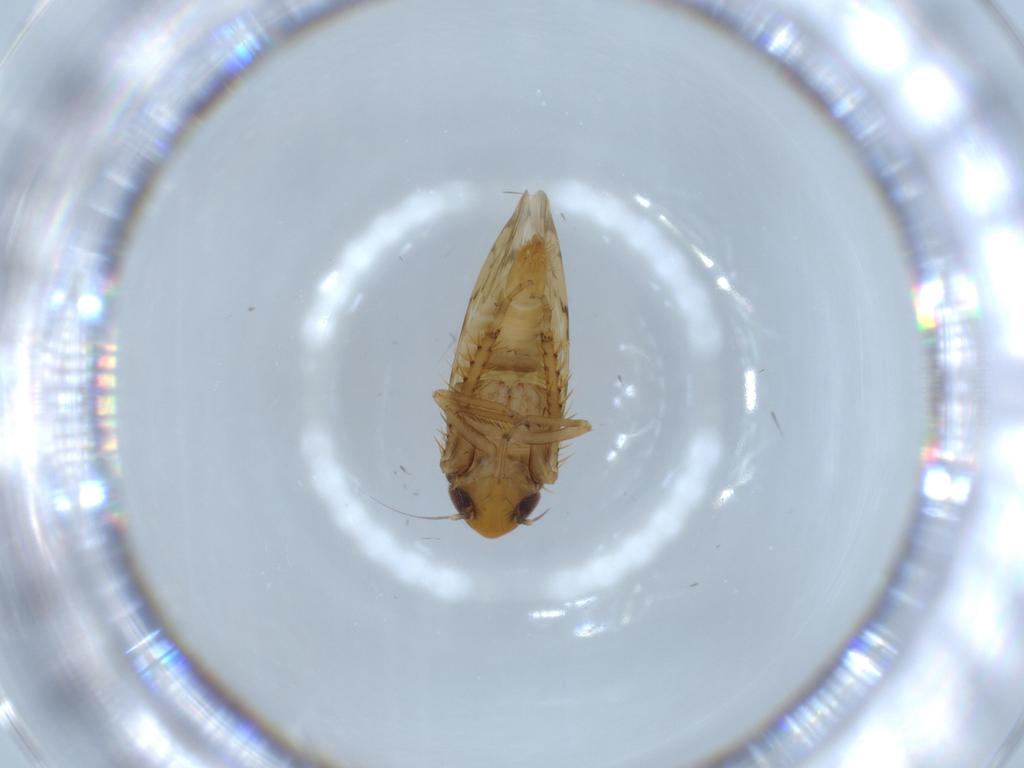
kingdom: Animalia
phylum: Arthropoda
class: Insecta
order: Hemiptera
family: Cicadellidae
